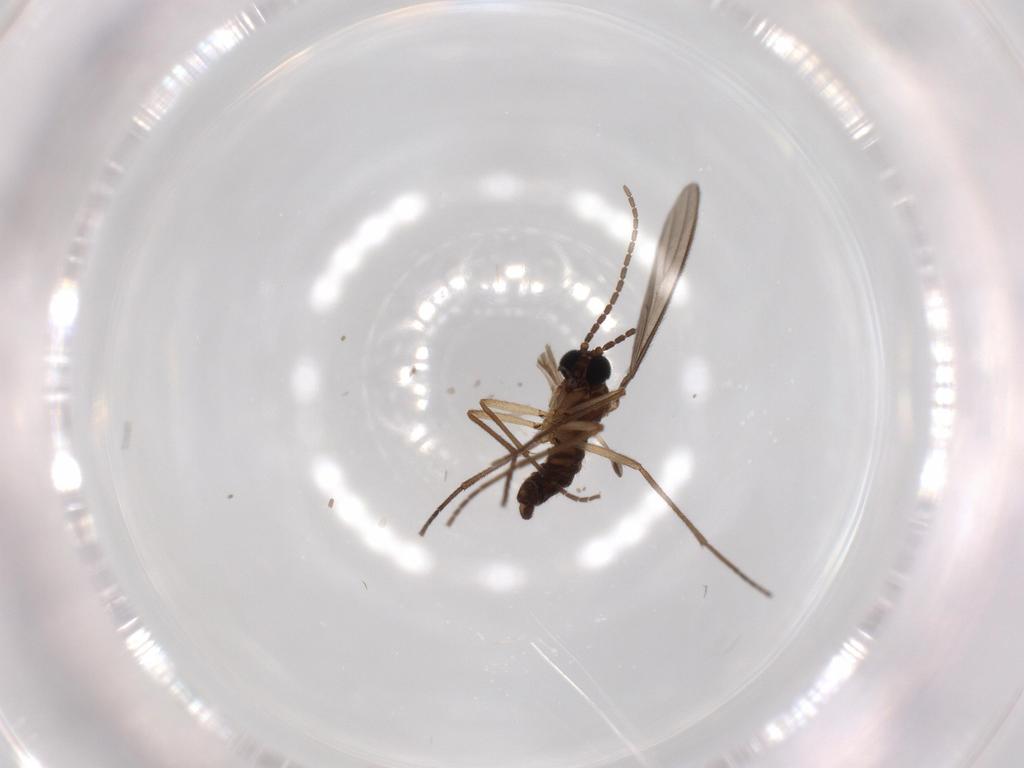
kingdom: Animalia
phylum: Arthropoda
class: Insecta
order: Diptera
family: Sciaridae
